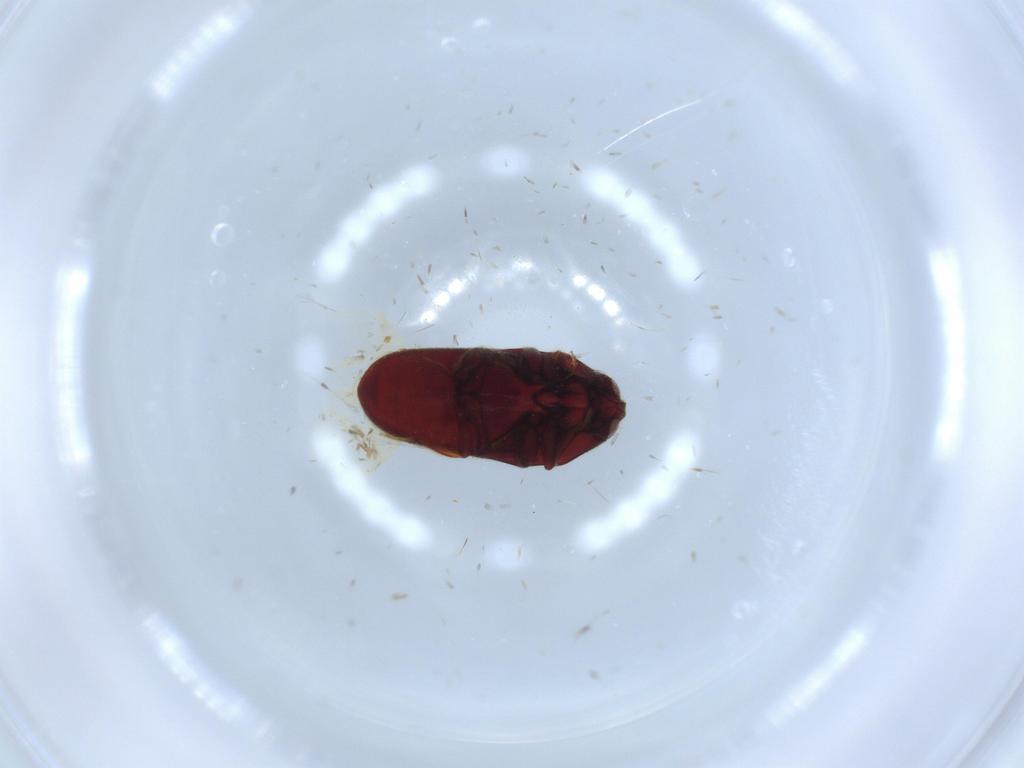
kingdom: Animalia
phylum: Arthropoda
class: Insecta
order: Coleoptera
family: Throscidae
